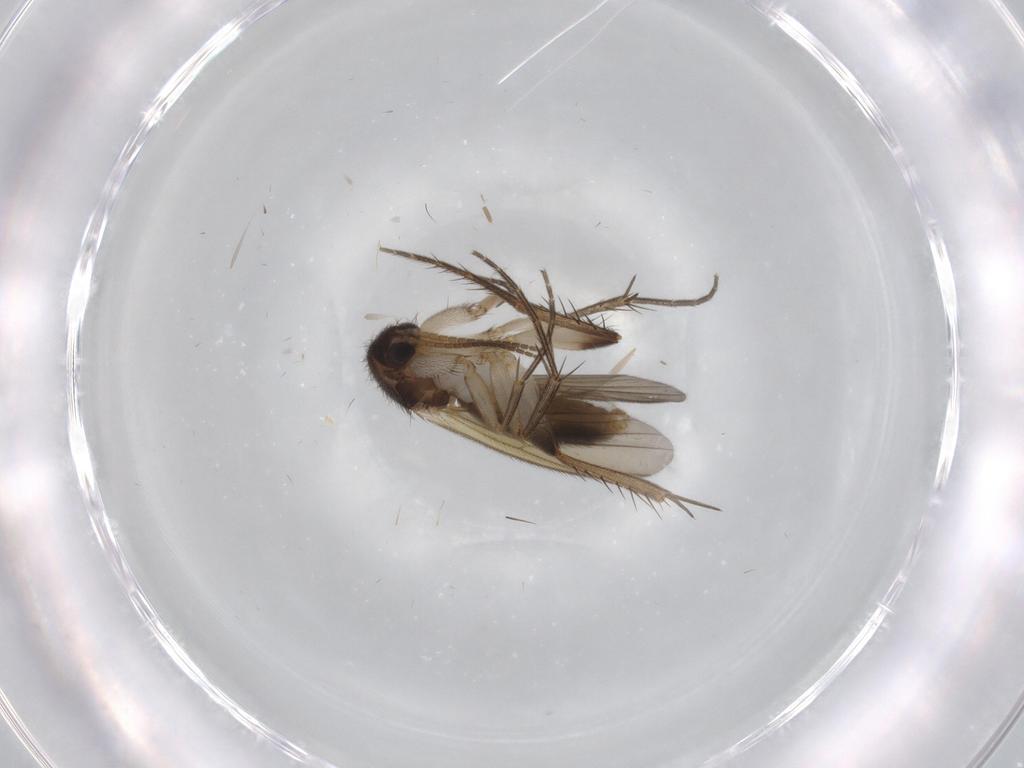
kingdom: Animalia
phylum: Arthropoda
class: Insecta
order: Diptera
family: Mycetophilidae
